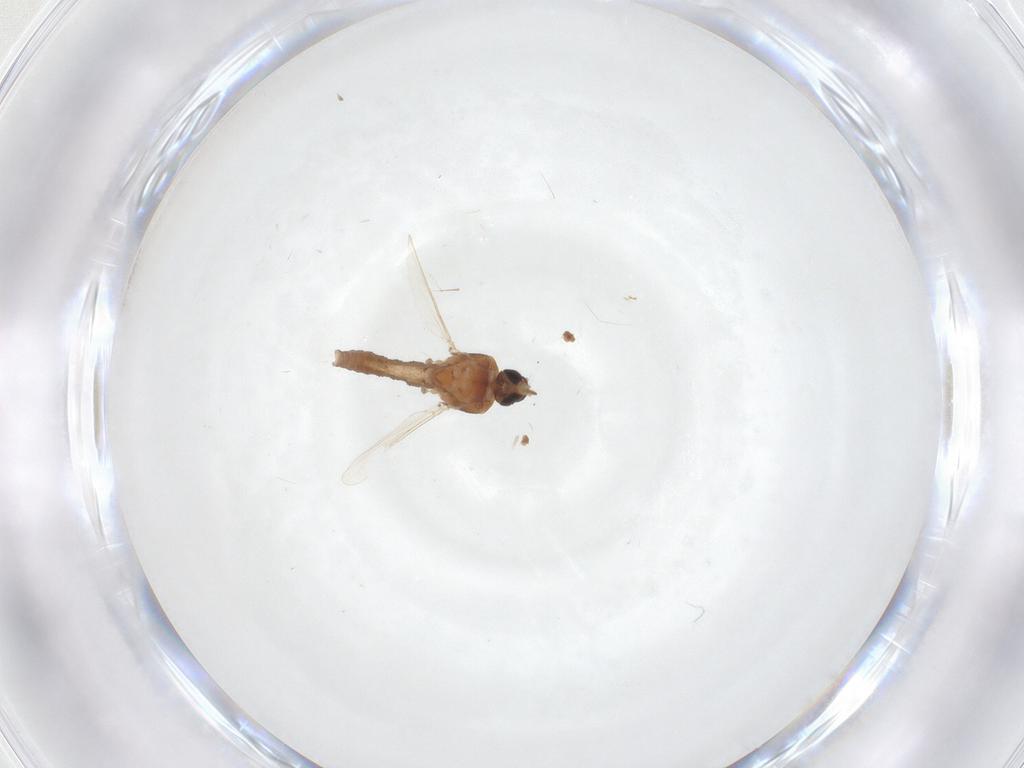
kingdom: Animalia
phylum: Arthropoda
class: Insecta
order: Diptera
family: Ceratopogonidae
